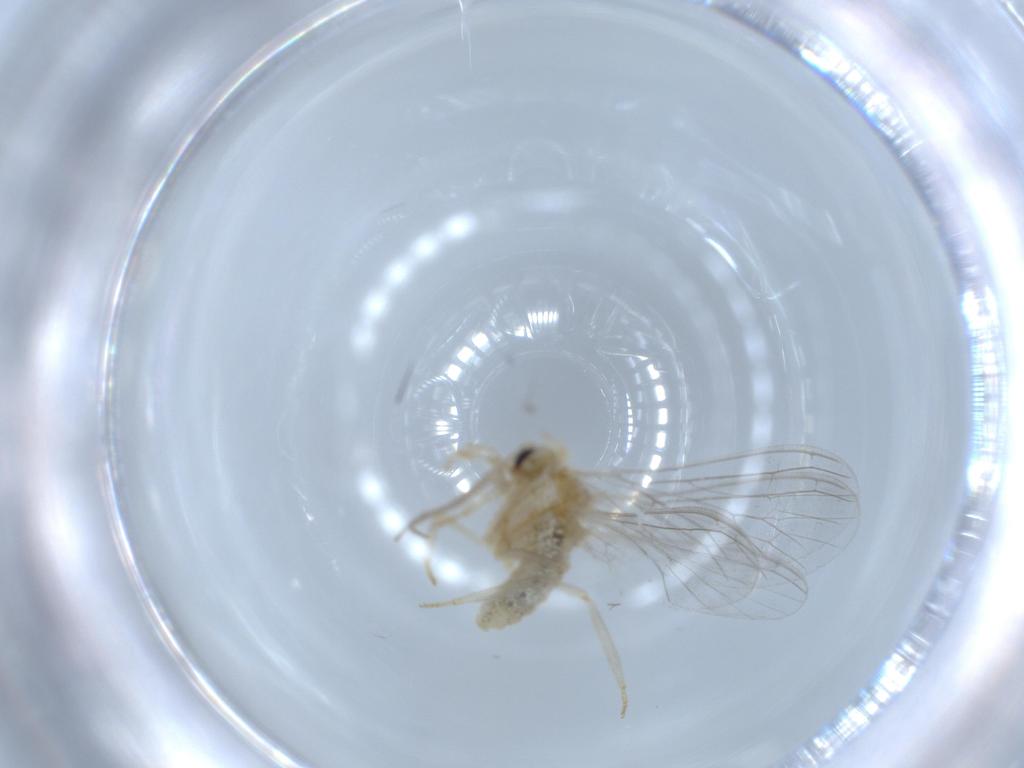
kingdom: Animalia
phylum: Arthropoda
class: Insecta
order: Neuroptera
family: Coniopterygidae
